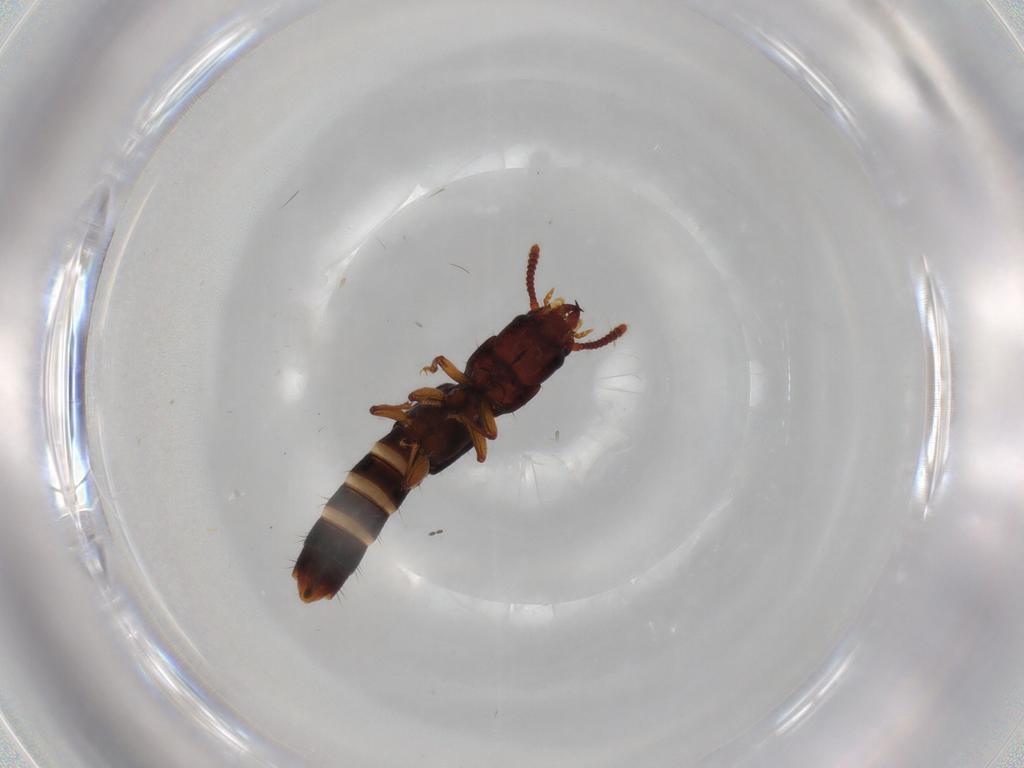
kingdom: Animalia
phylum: Arthropoda
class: Insecta
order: Coleoptera
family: Staphylinidae
